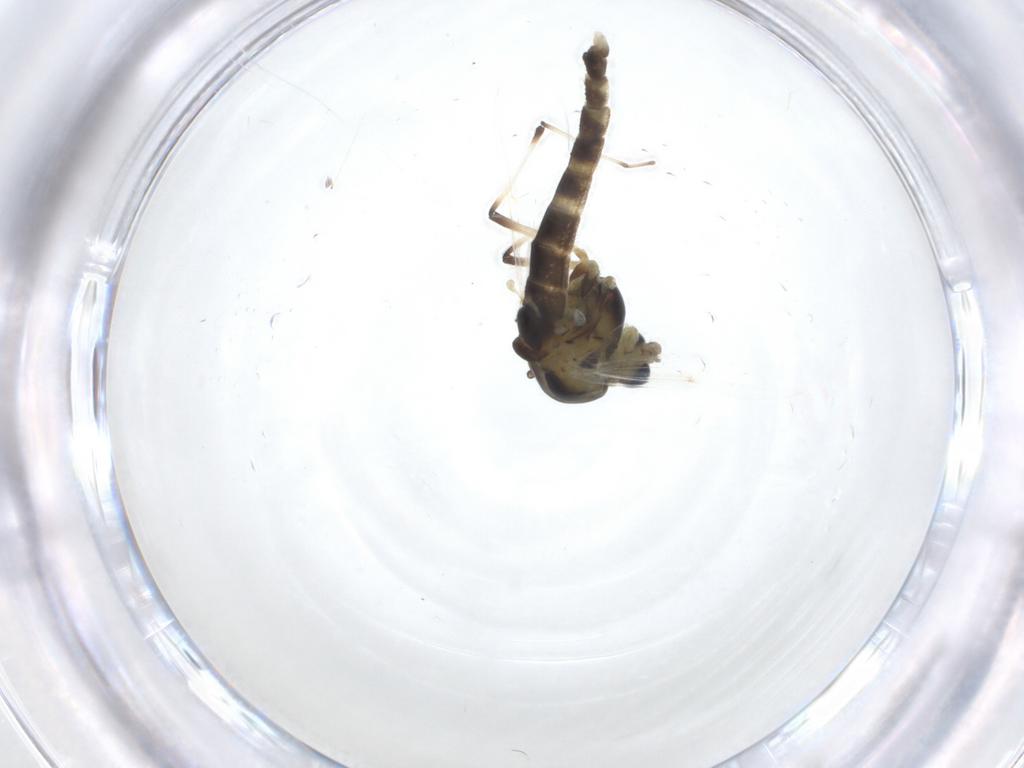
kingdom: Animalia
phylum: Arthropoda
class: Insecta
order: Diptera
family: Chironomidae
